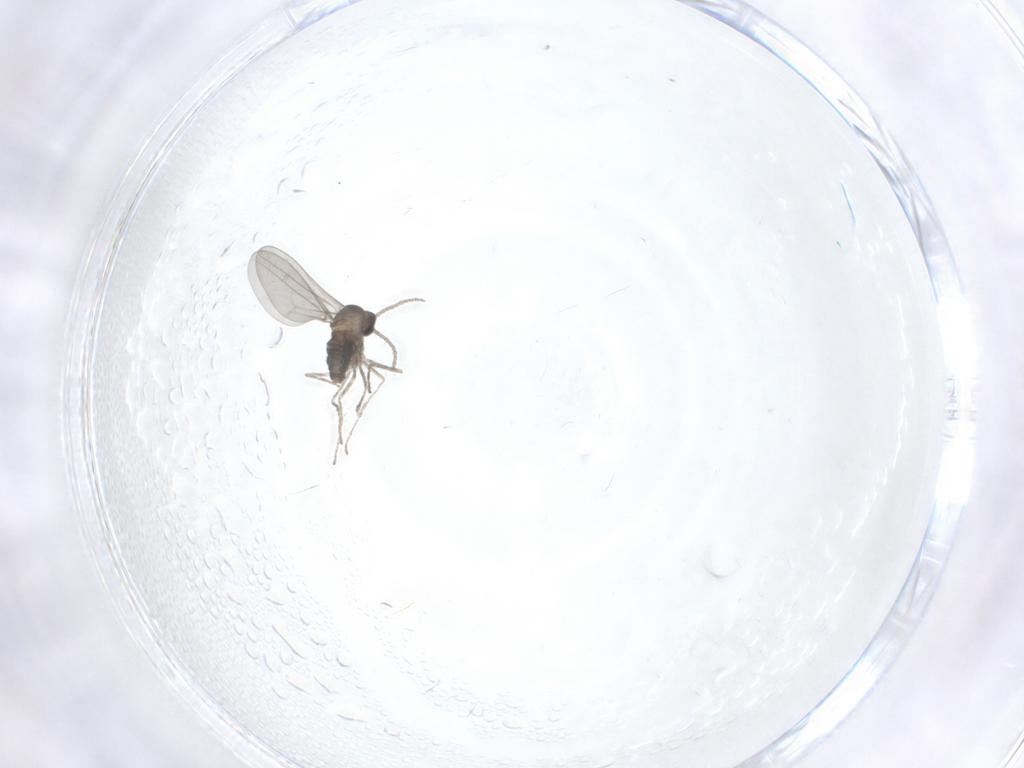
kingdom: Animalia
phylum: Arthropoda
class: Insecta
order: Diptera
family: Cecidomyiidae
